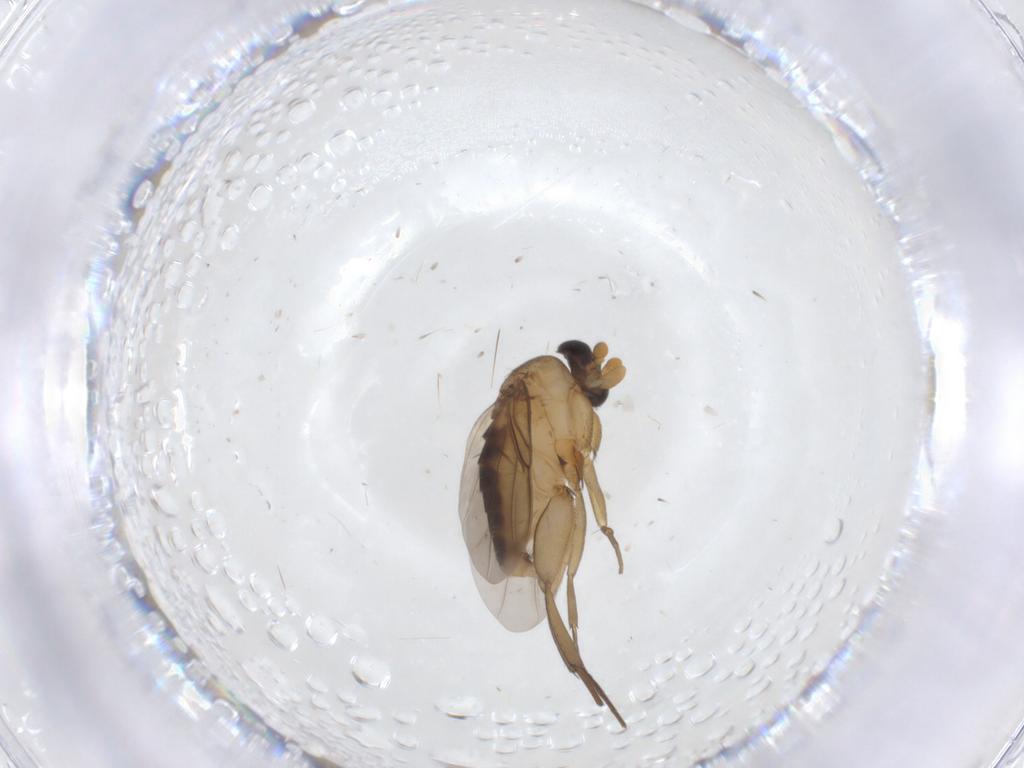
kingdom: Animalia
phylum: Arthropoda
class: Insecta
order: Diptera
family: Phoridae
